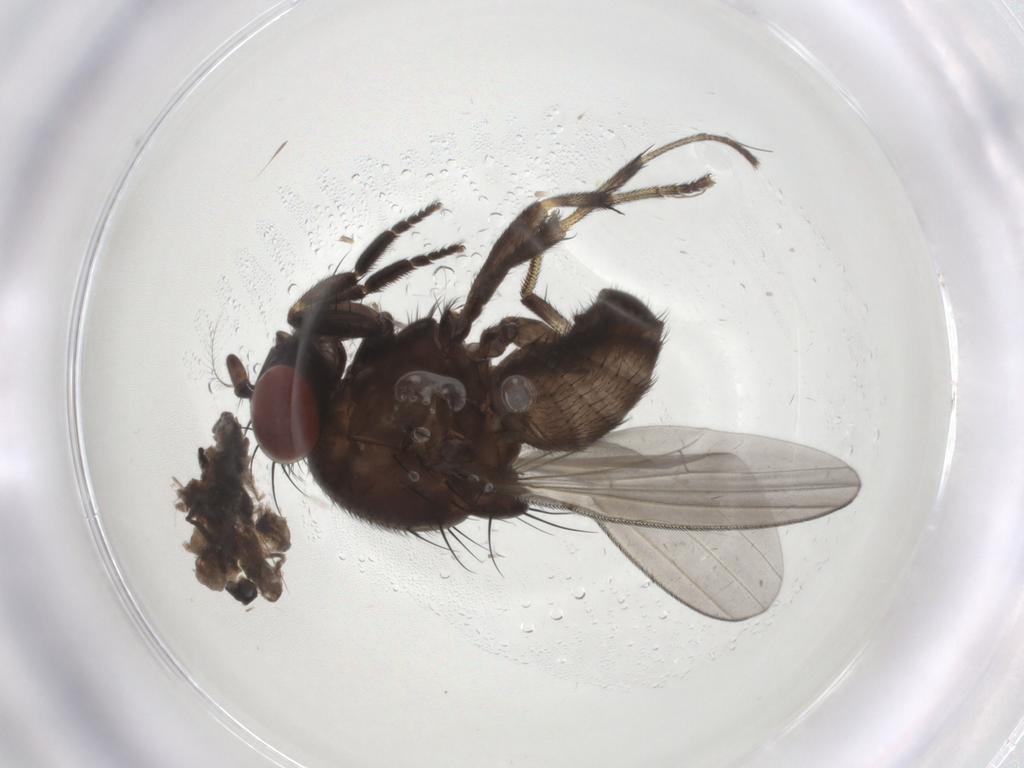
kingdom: Animalia
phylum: Arthropoda
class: Insecta
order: Diptera
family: Lauxaniidae
